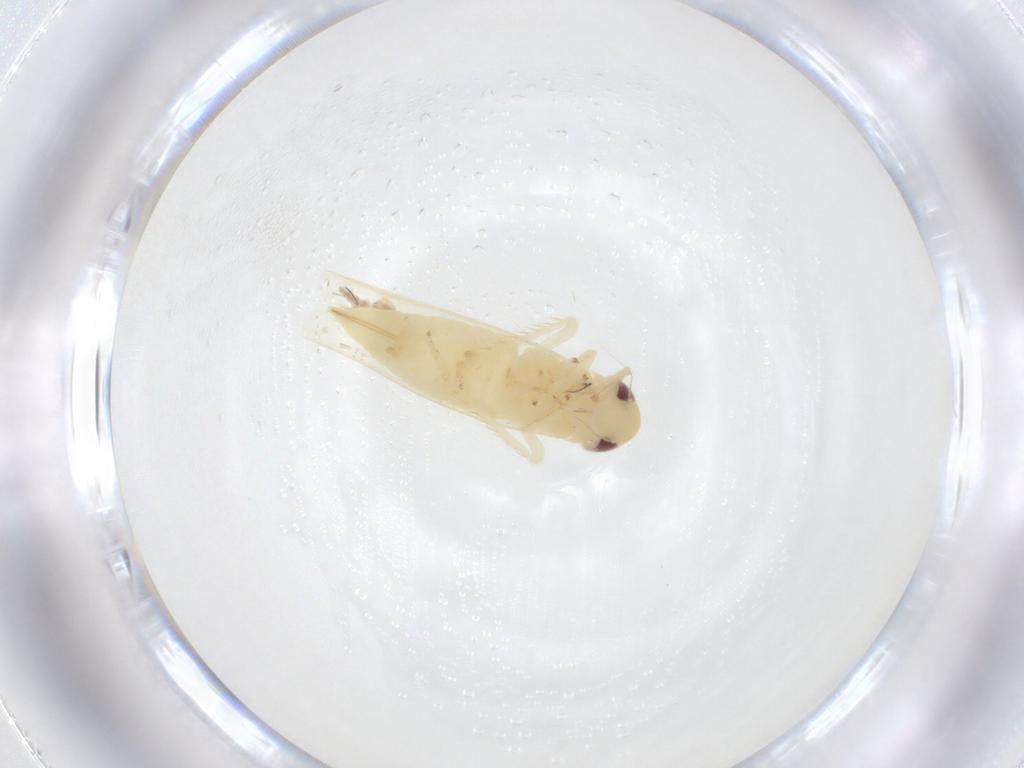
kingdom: Animalia
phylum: Arthropoda
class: Insecta
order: Hemiptera
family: Cicadellidae
